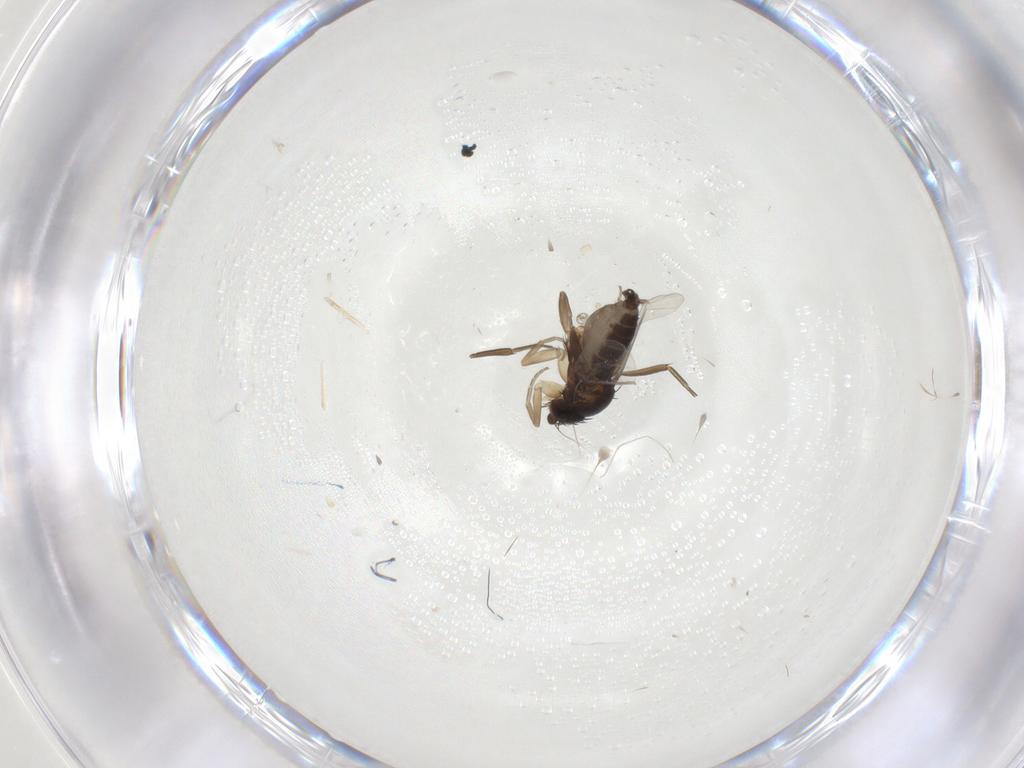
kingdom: Animalia
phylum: Arthropoda
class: Insecta
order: Diptera
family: Phoridae
